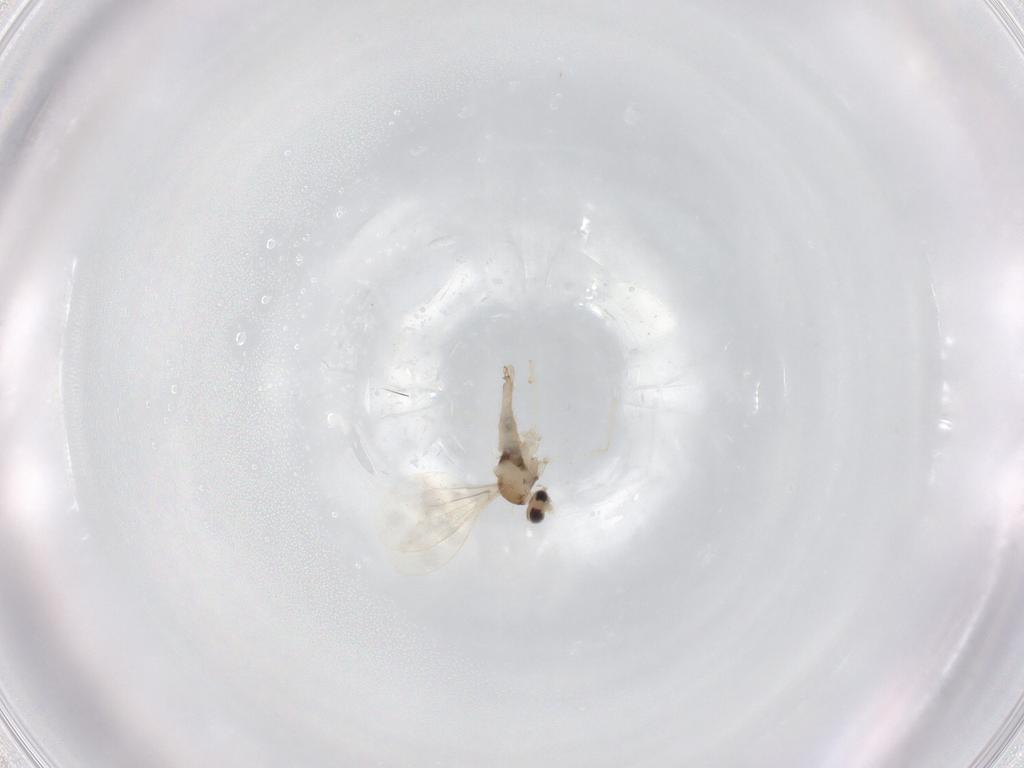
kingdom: Animalia
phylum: Arthropoda
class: Insecta
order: Diptera
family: Cecidomyiidae
